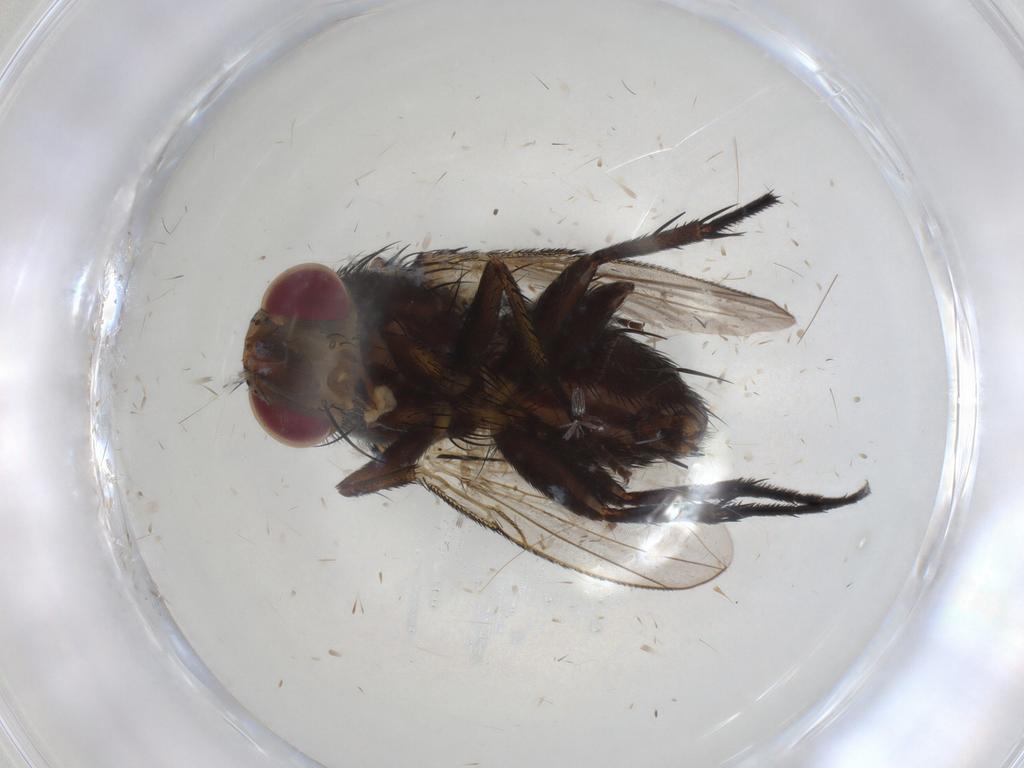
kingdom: Animalia
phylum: Arthropoda
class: Insecta
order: Diptera
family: Tachinidae
